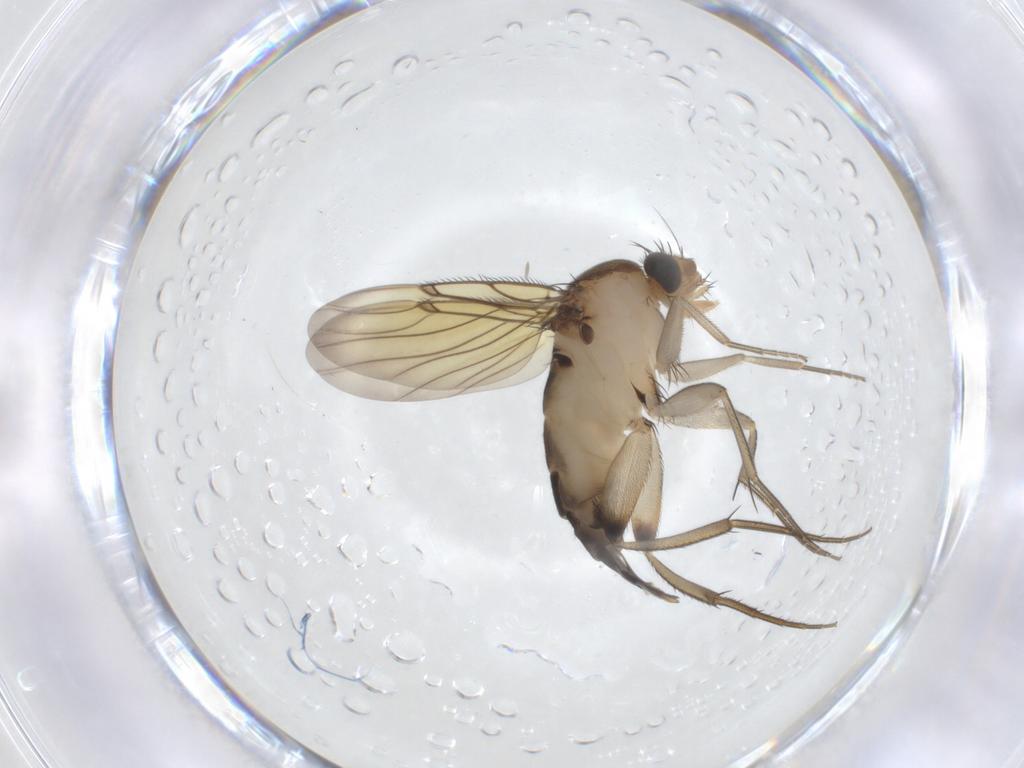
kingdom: Animalia
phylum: Arthropoda
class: Insecta
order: Diptera
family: Phoridae
